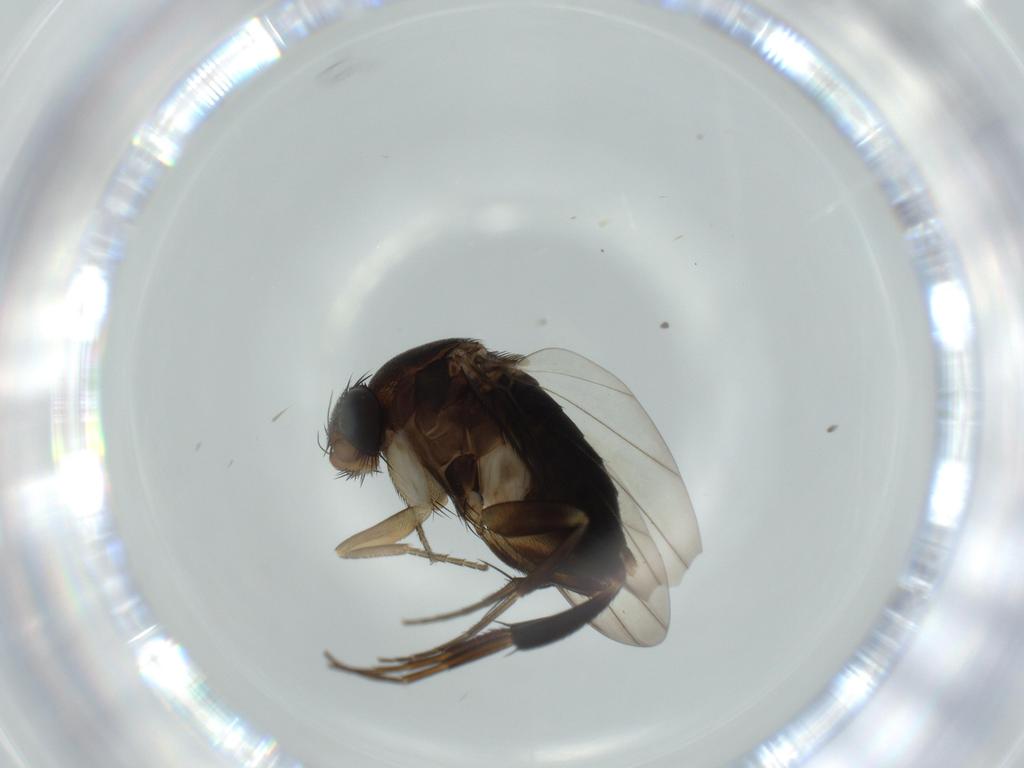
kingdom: Animalia
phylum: Arthropoda
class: Insecta
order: Diptera
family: Phoridae
